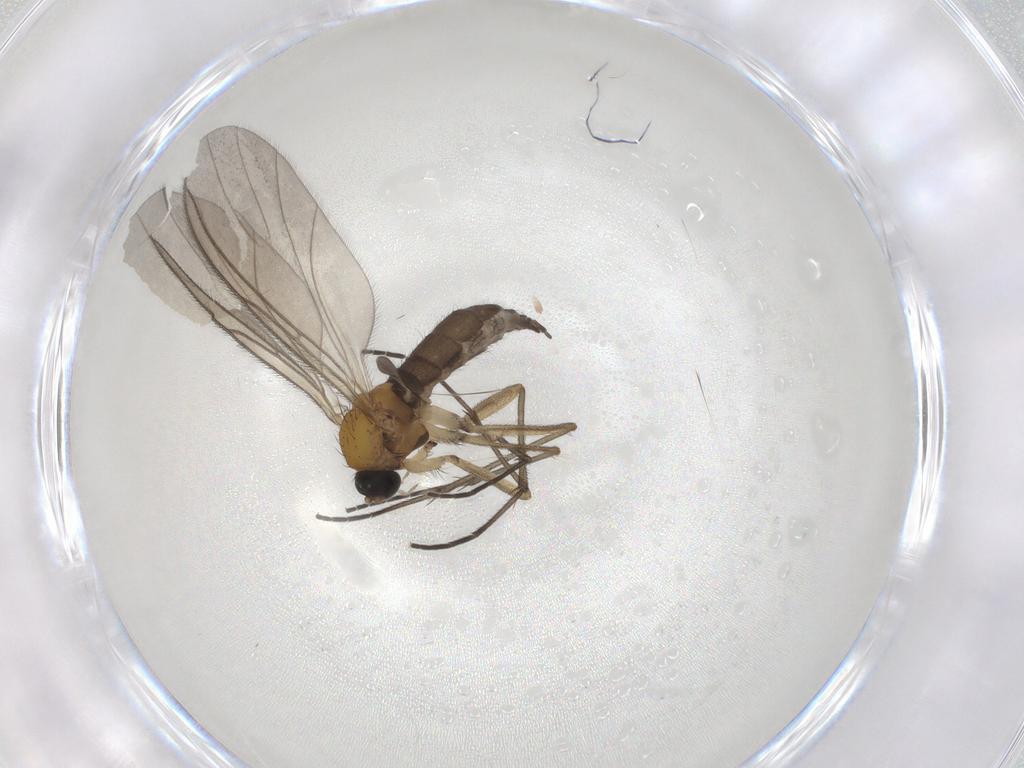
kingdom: Animalia
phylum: Arthropoda
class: Insecta
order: Diptera
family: Sciaridae
